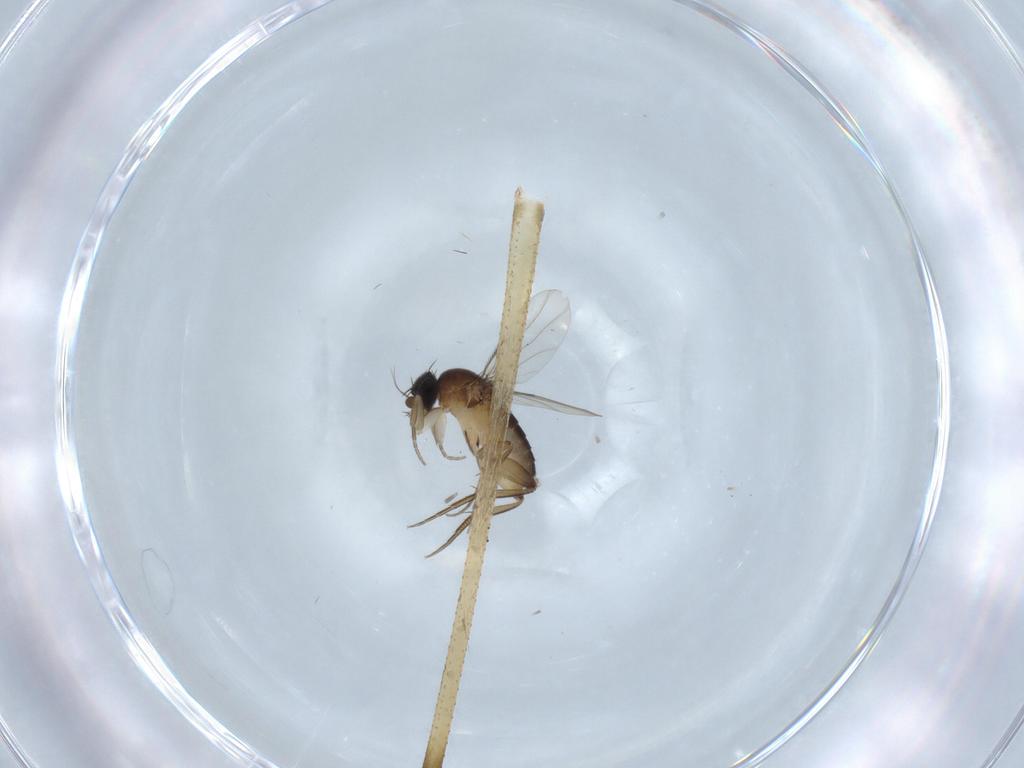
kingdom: Animalia
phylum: Arthropoda
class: Insecta
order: Diptera
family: Phoridae
